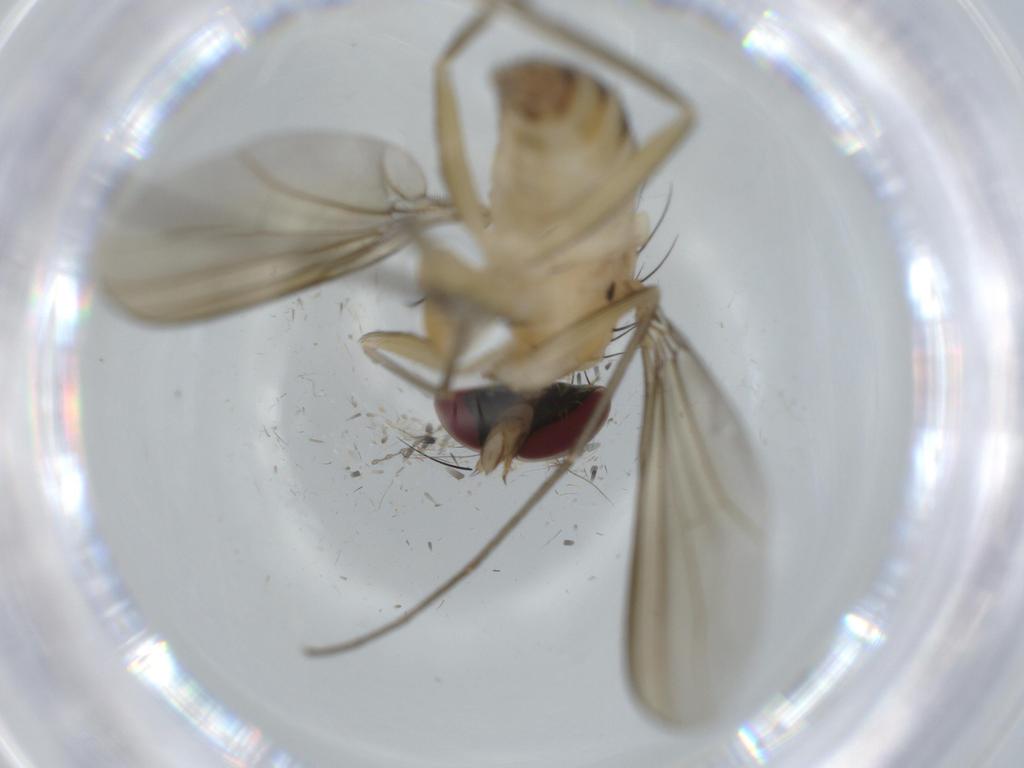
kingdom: Animalia
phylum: Arthropoda
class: Insecta
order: Diptera
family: Dolichopodidae
